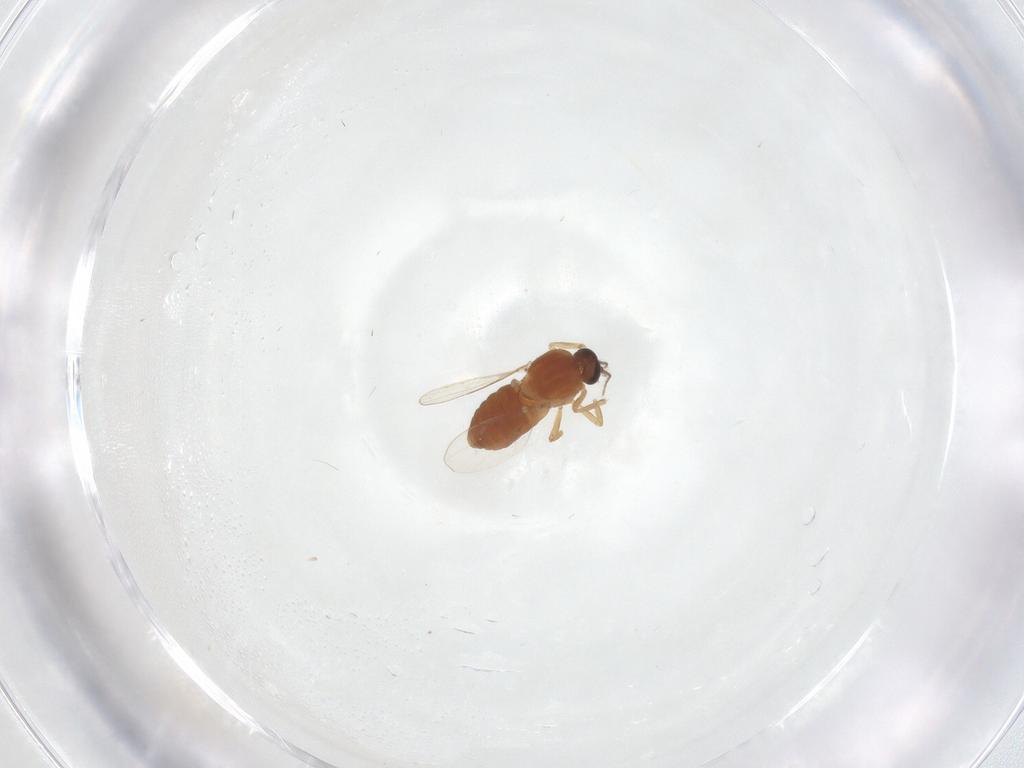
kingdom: Animalia
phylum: Arthropoda
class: Insecta
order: Diptera
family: Ceratopogonidae
